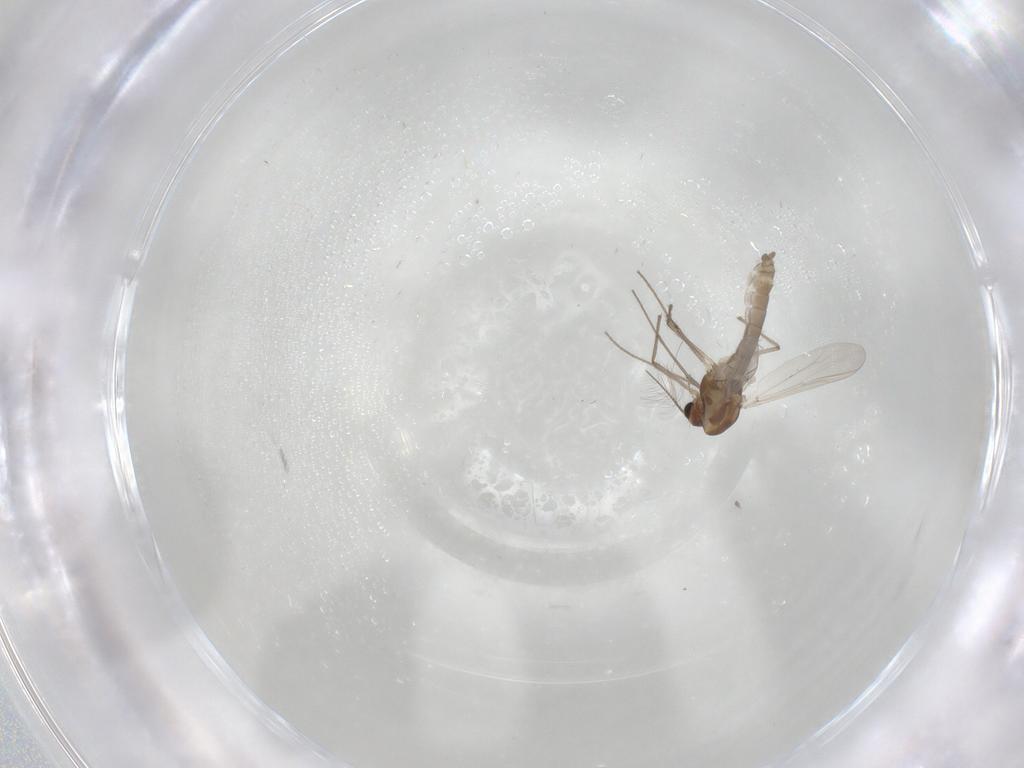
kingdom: Animalia
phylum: Arthropoda
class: Insecta
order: Diptera
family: Chironomidae
